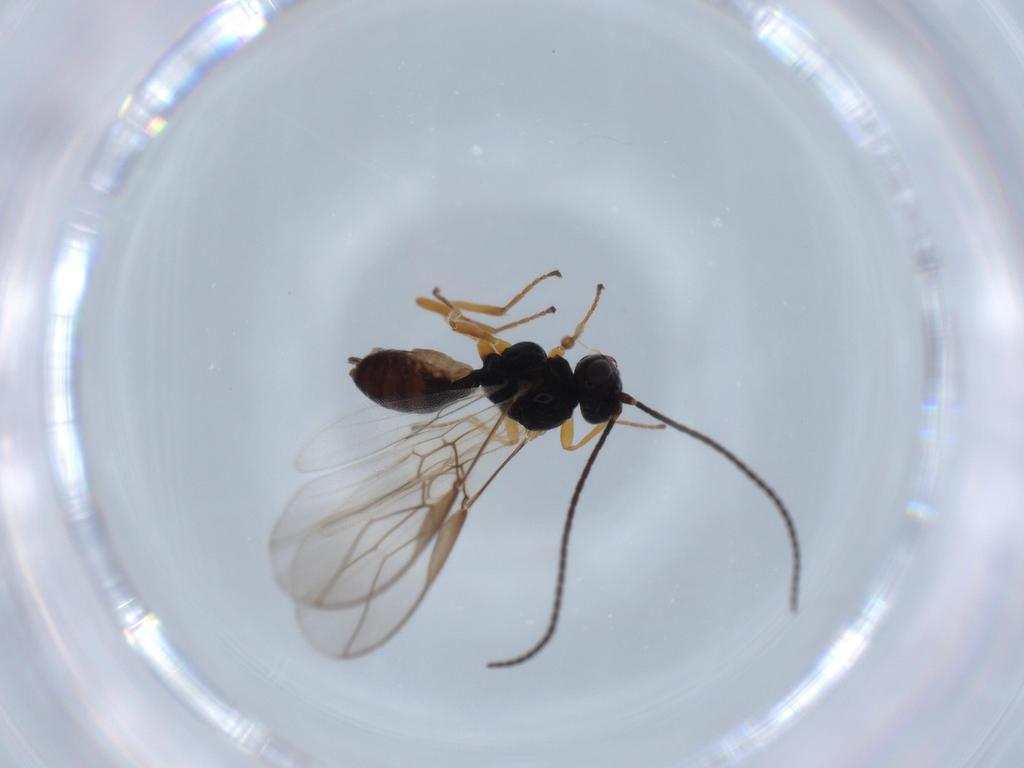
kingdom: Animalia
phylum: Arthropoda
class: Insecta
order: Hymenoptera
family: Braconidae
